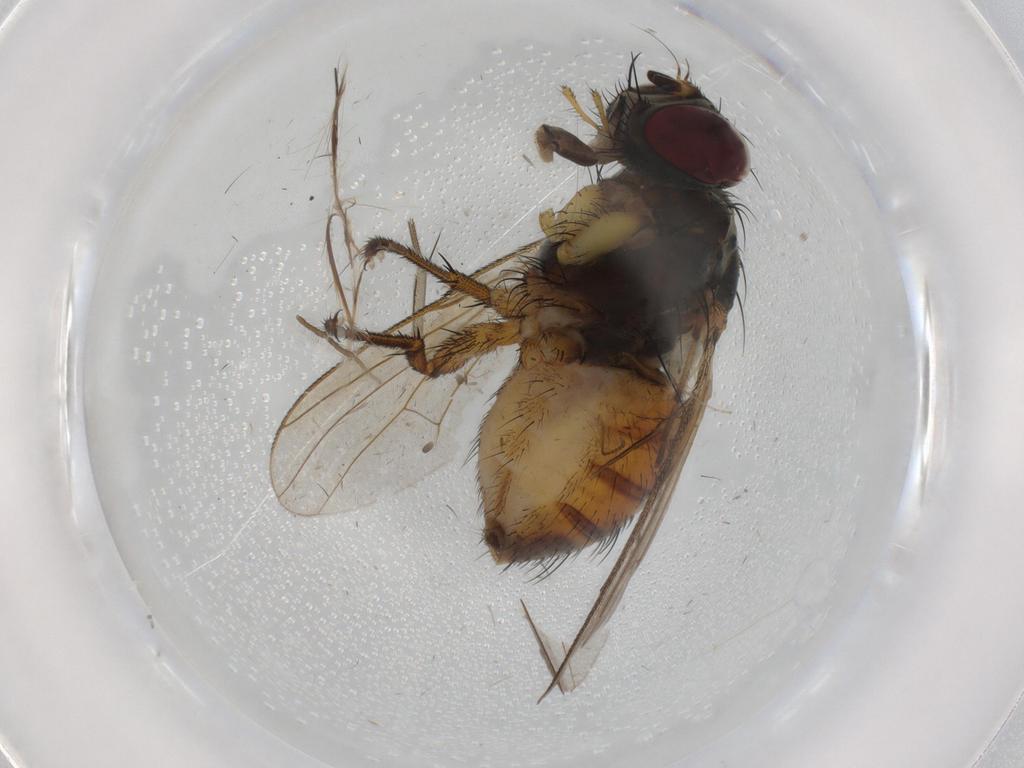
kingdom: Animalia
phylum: Arthropoda
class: Insecta
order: Diptera
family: Muscidae
